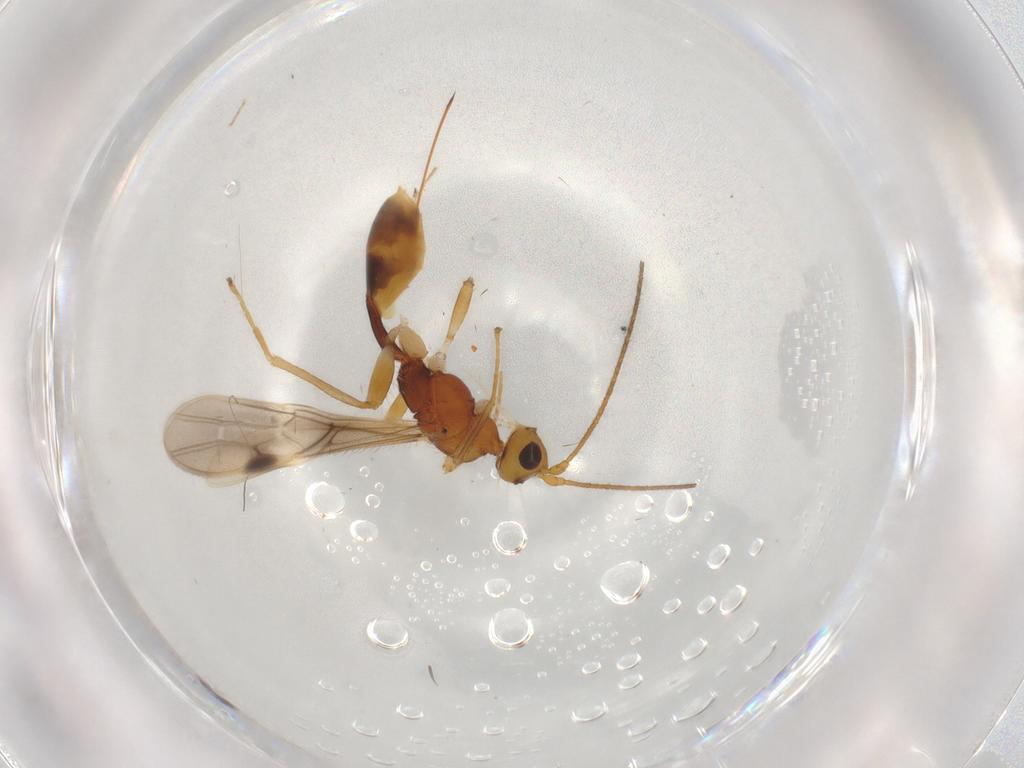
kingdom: Animalia
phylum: Arthropoda
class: Insecta
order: Hymenoptera
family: Braconidae
